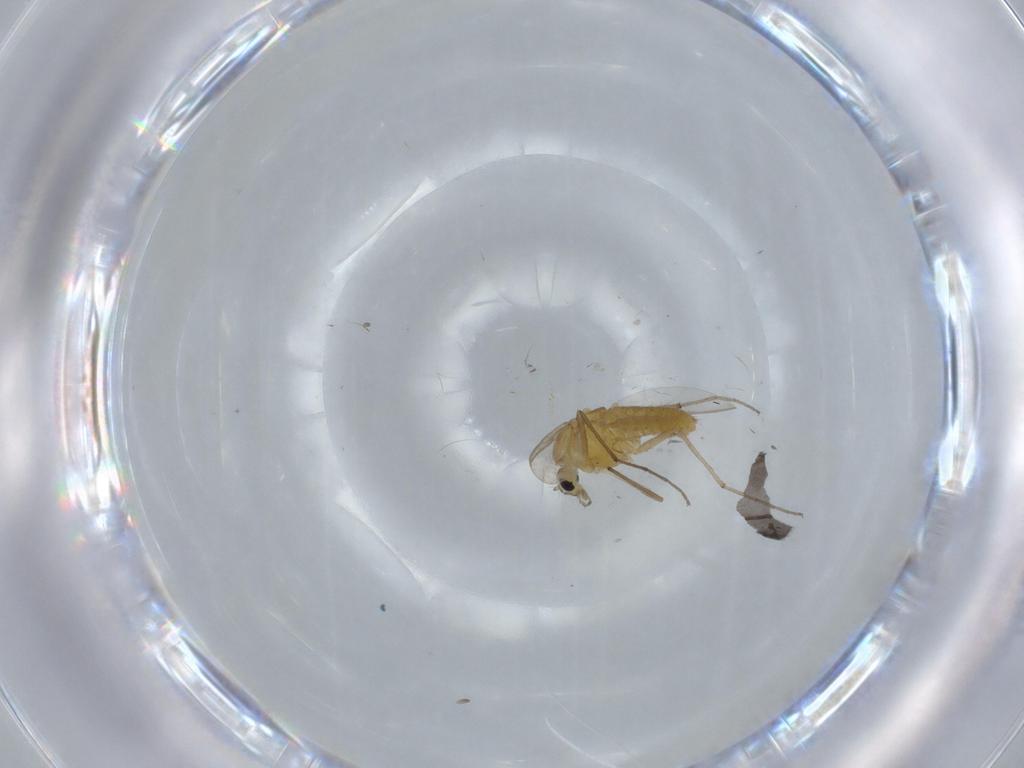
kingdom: Animalia
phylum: Arthropoda
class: Insecta
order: Diptera
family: Chironomidae
